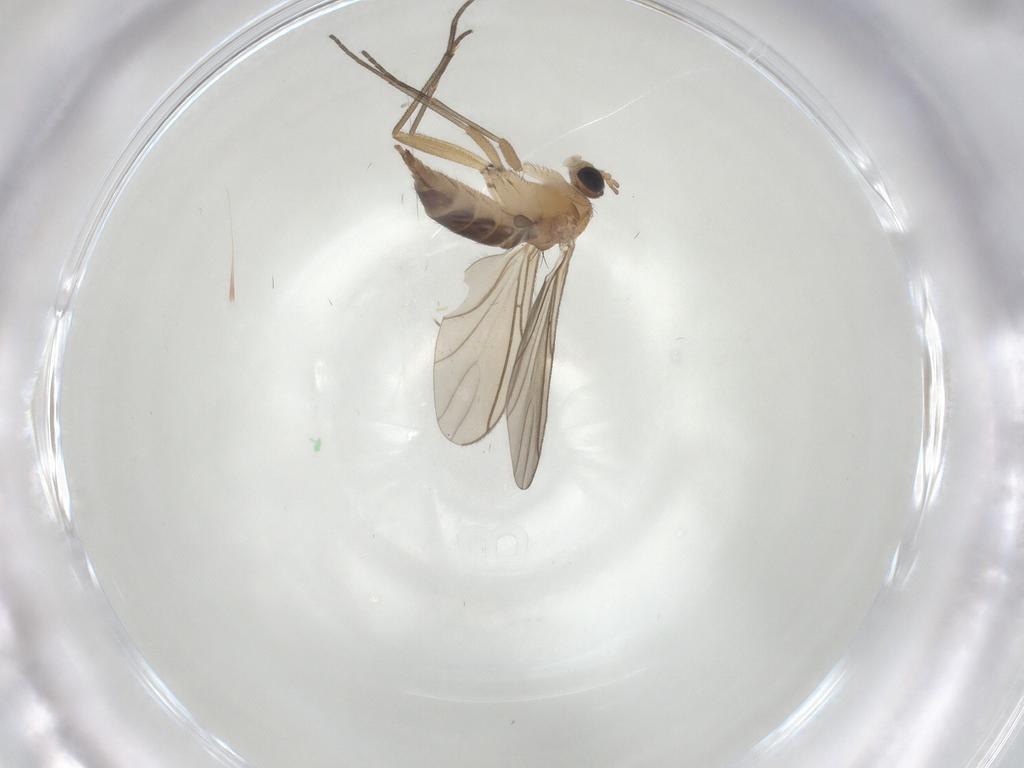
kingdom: Animalia
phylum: Arthropoda
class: Insecta
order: Diptera
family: Sciaridae
